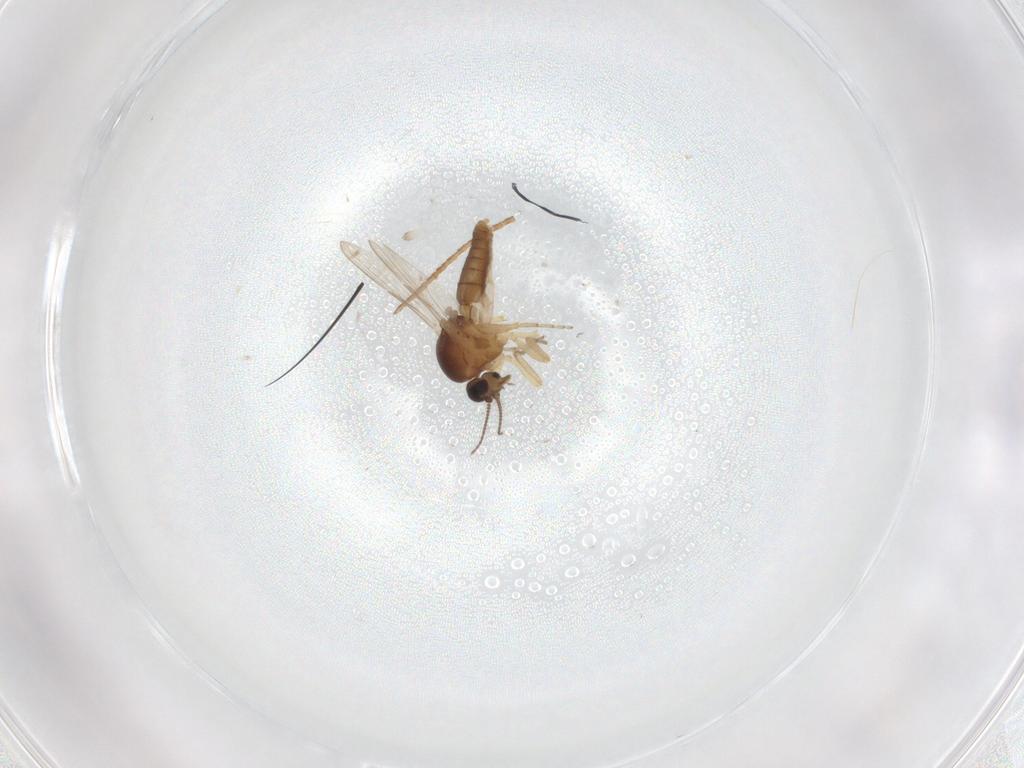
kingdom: Animalia
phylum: Arthropoda
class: Insecta
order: Diptera
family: Ceratopogonidae
